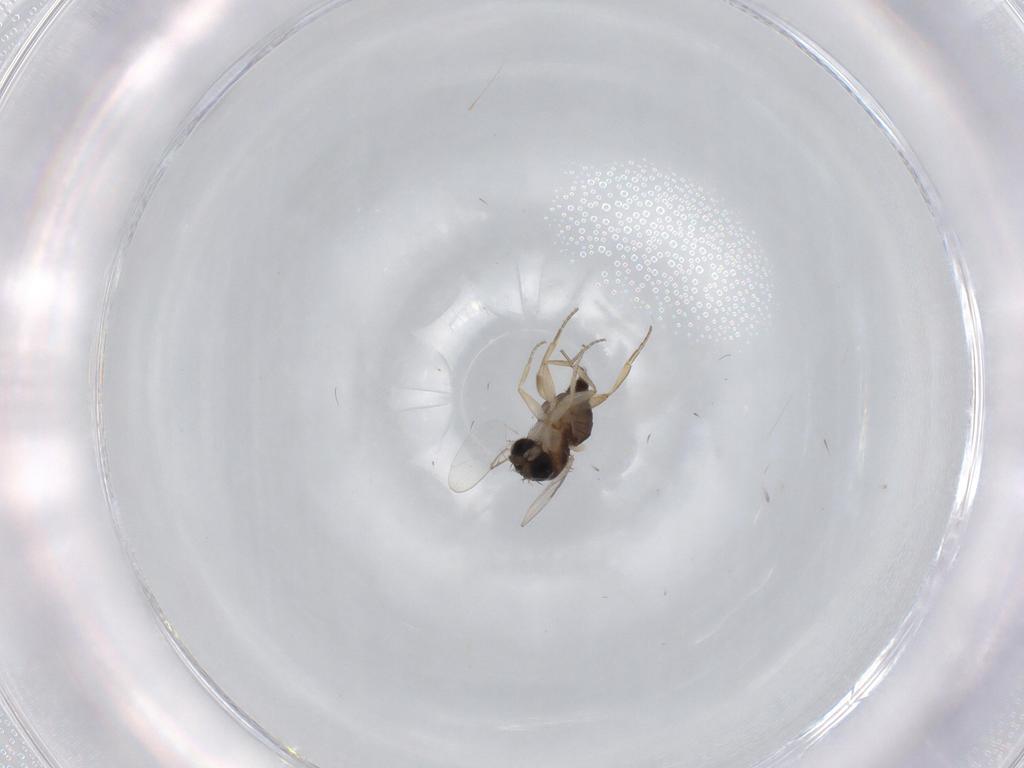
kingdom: Animalia
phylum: Arthropoda
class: Insecta
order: Diptera
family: Phoridae
